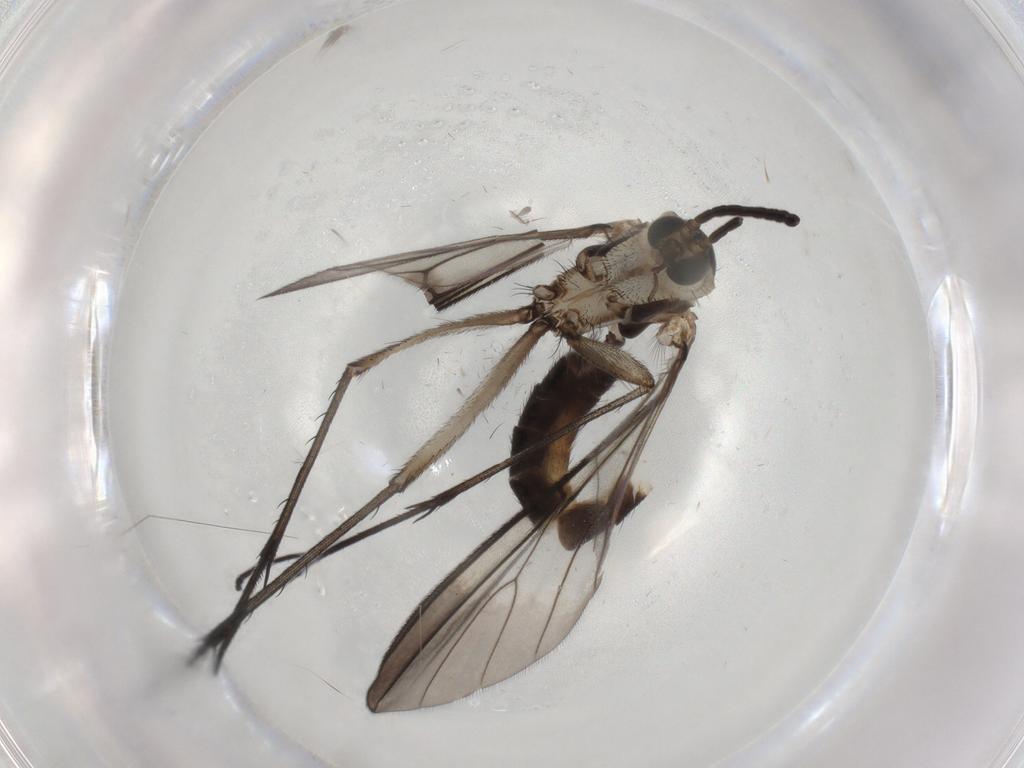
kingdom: Animalia
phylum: Arthropoda
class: Insecta
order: Diptera
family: Mycetophilidae
